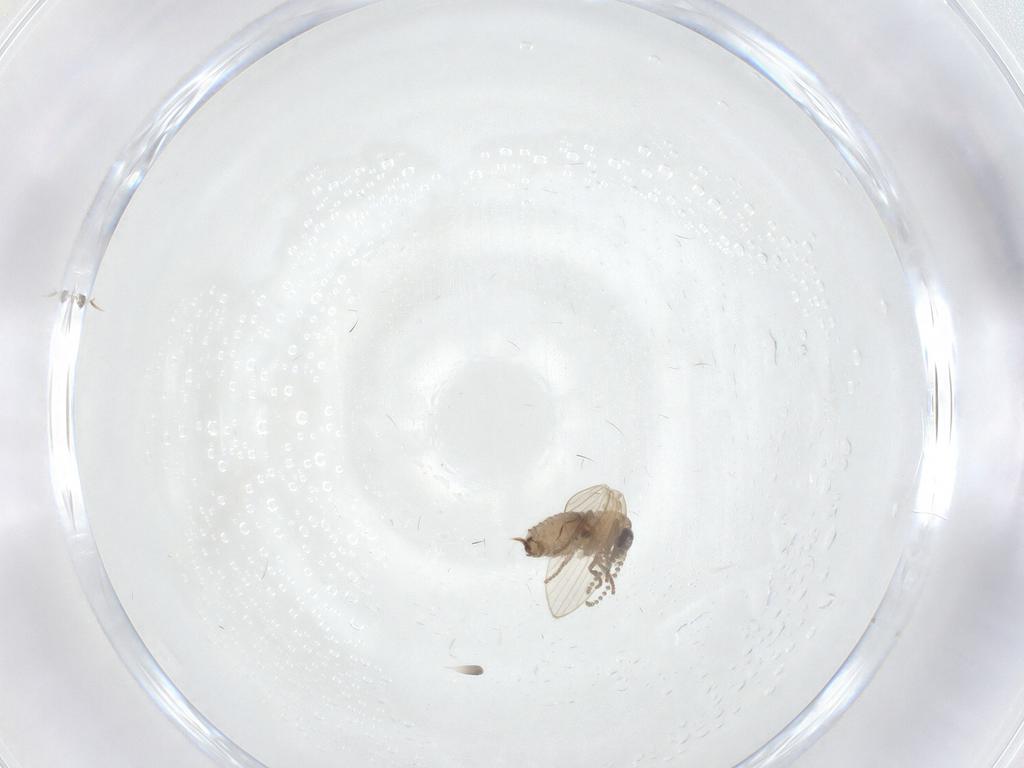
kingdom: Animalia
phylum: Arthropoda
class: Insecta
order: Diptera
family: Psychodidae
